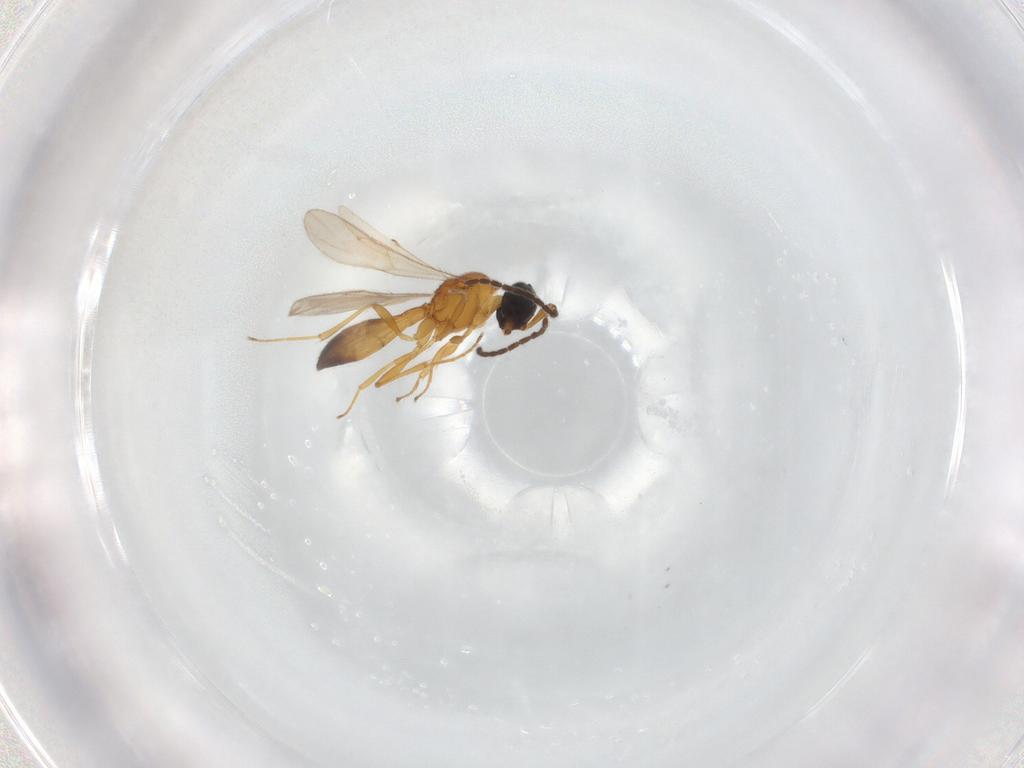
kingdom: Animalia
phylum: Arthropoda
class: Insecta
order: Hymenoptera
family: Scelionidae
